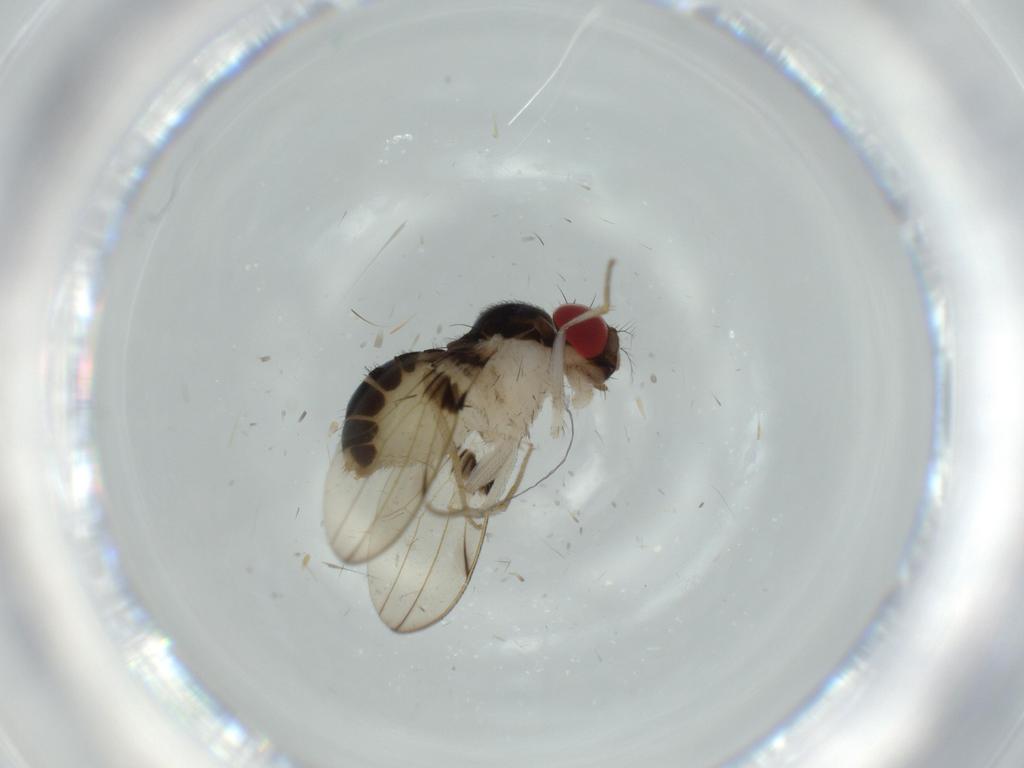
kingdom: Animalia
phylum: Arthropoda
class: Insecta
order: Diptera
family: Drosophilidae
